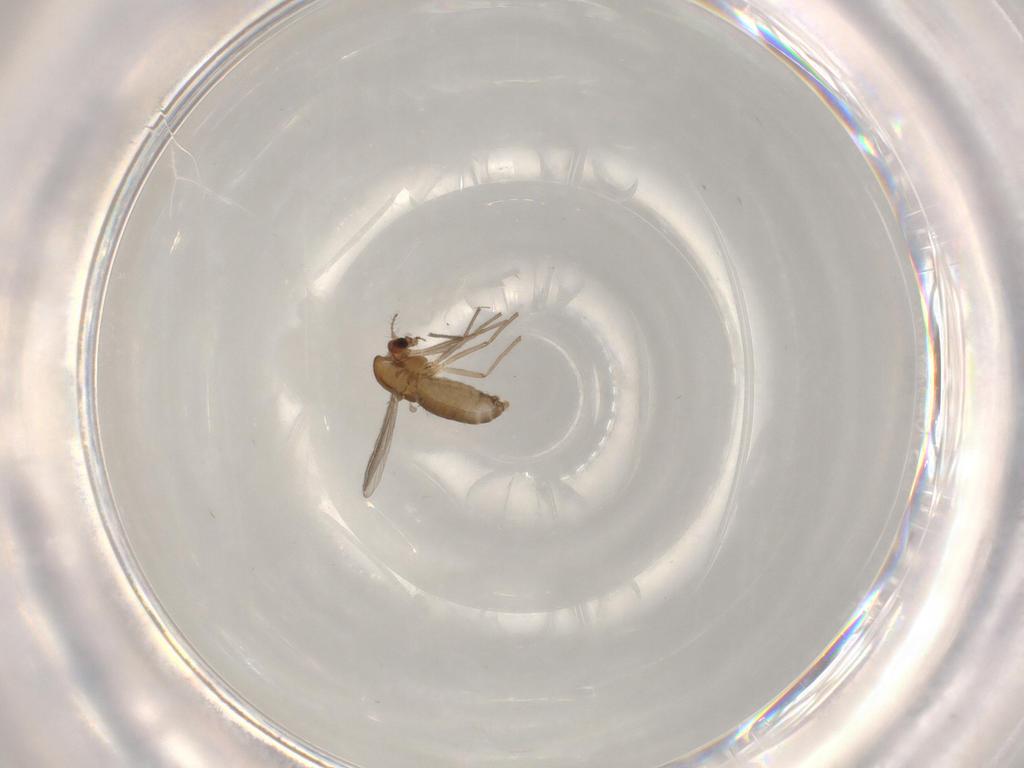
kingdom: Animalia
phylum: Arthropoda
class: Insecta
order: Diptera
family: Chironomidae
